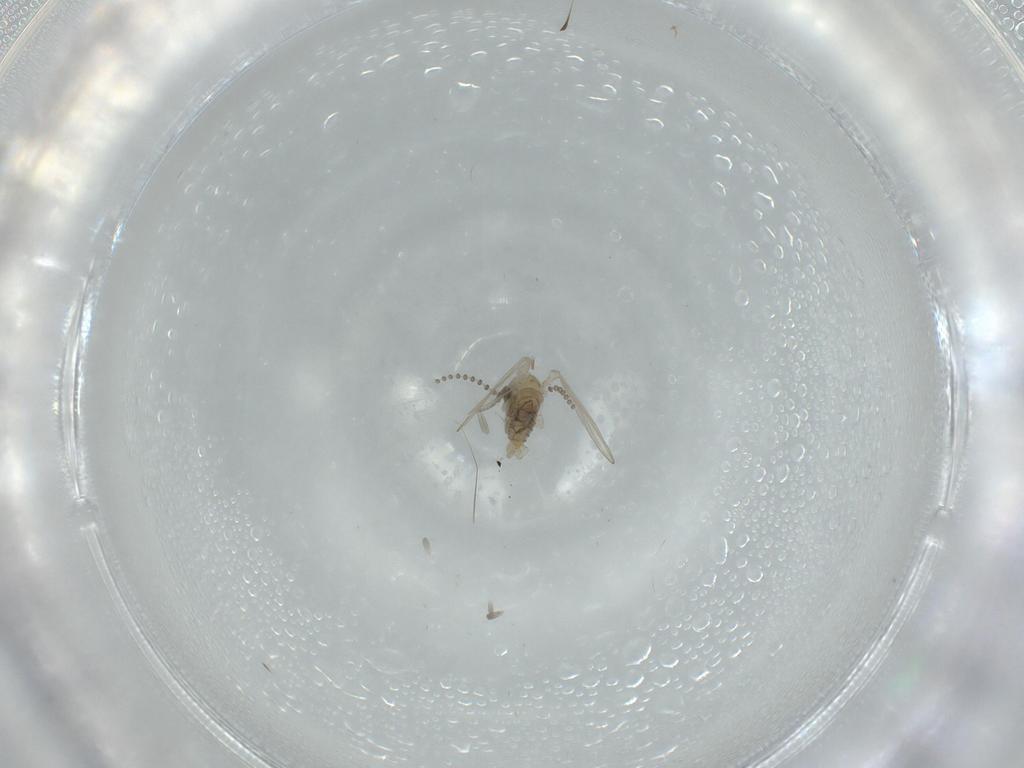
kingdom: Animalia
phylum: Arthropoda
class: Insecta
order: Diptera
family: Psychodidae
